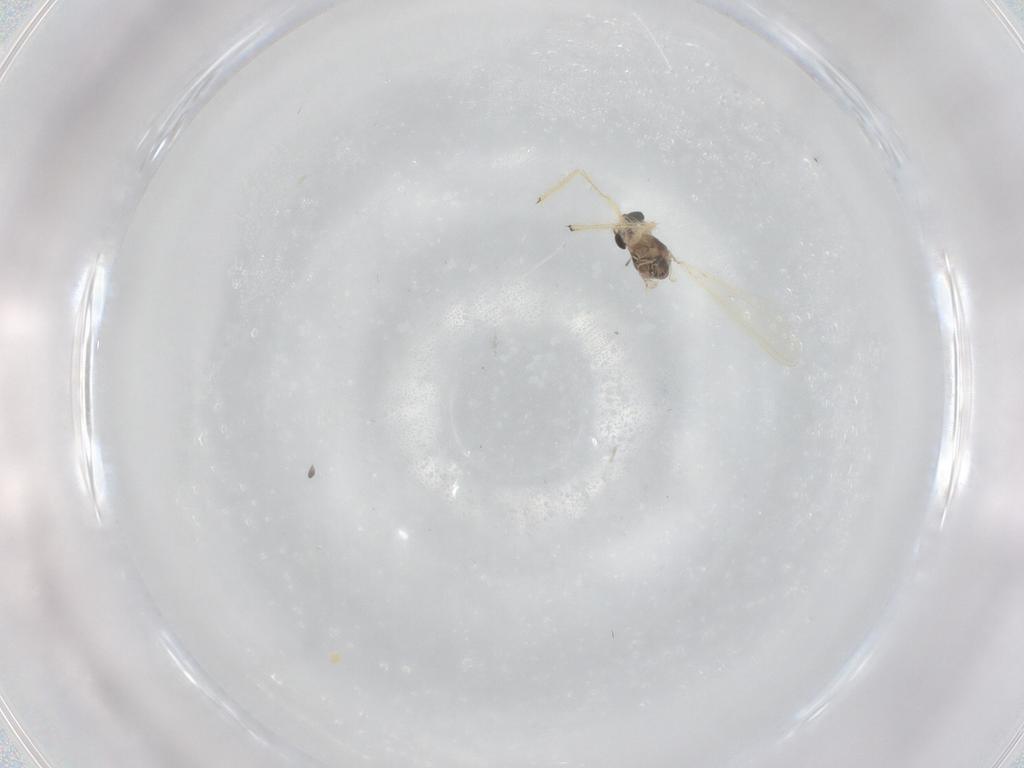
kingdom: Animalia
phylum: Arthropoda
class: Insecta
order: Diptera
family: Chironomidae
